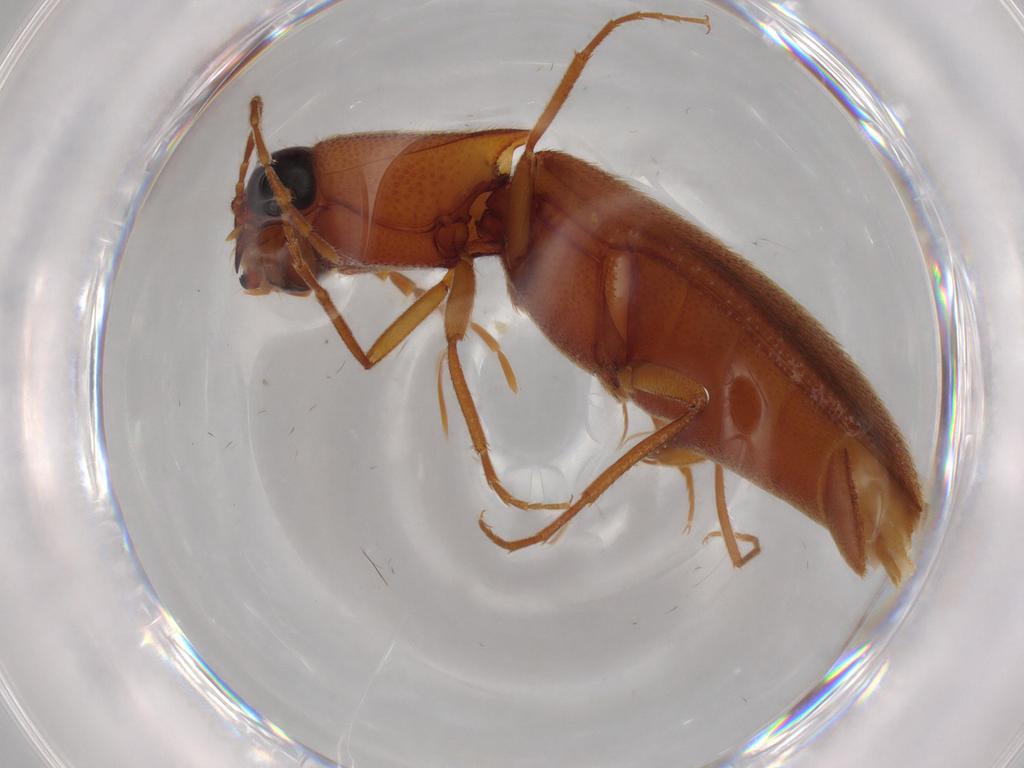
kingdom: Animalia
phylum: Arthropoda
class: Insecta
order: Coleoptera
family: Elateridae
